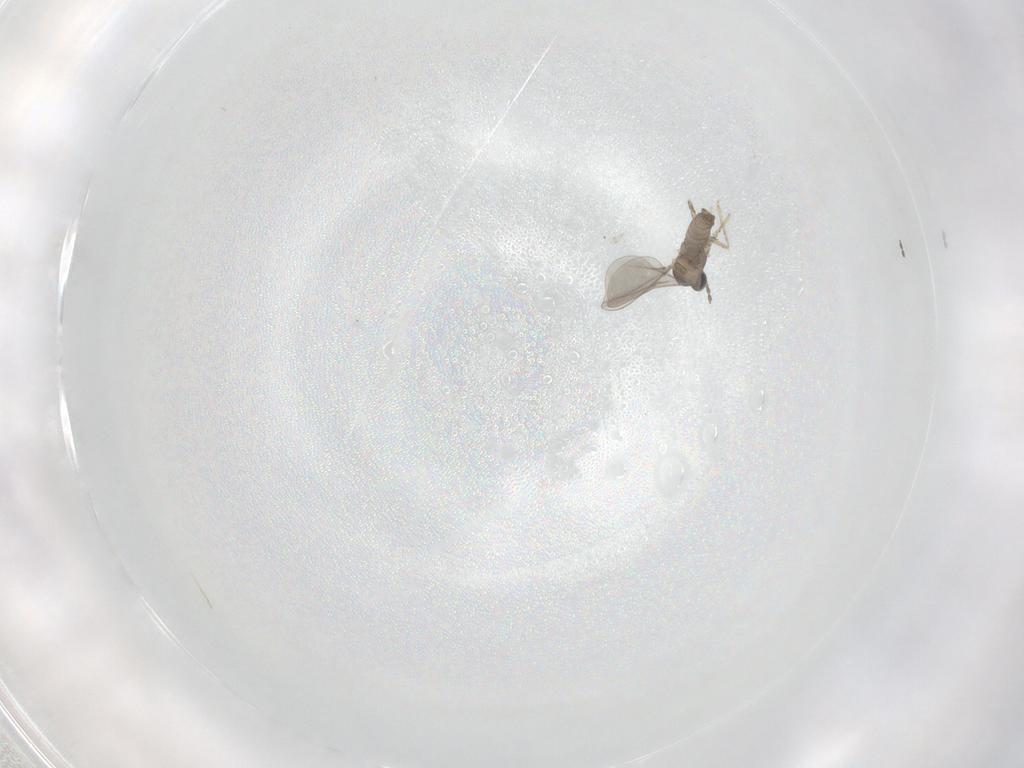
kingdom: Animalia
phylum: Arthropoda
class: Insecta
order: Diptera
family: Cecidomyiidae
